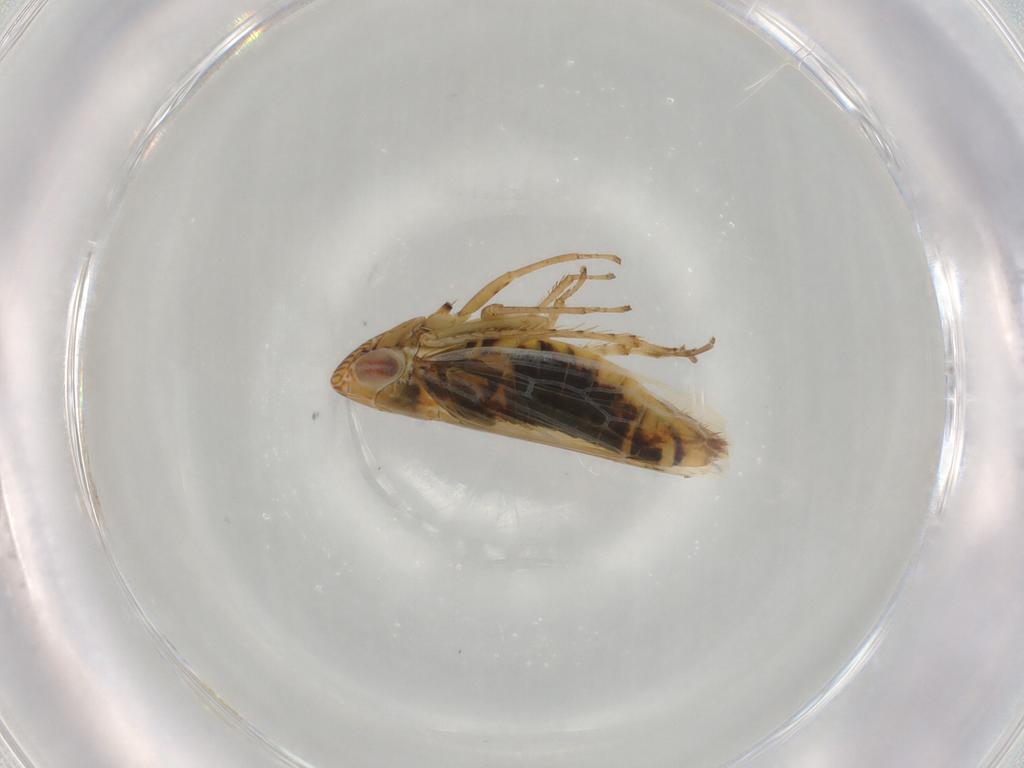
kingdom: Animalia
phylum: Arthropoda
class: Insecta
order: Hemiptera
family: Cicadellidae
